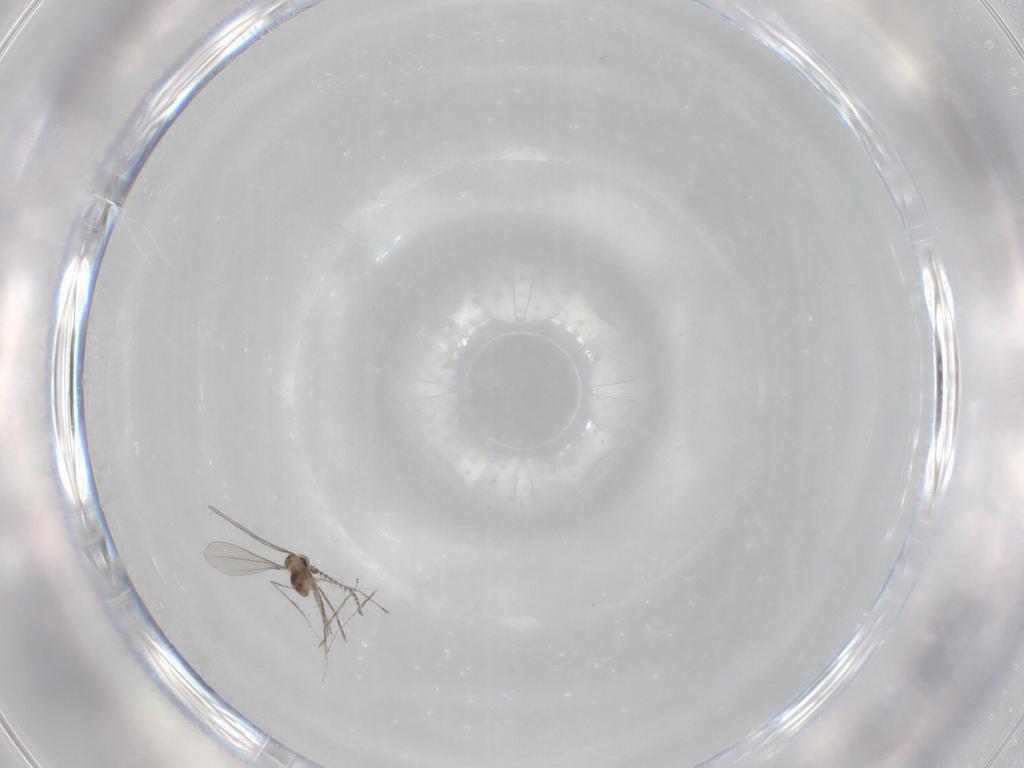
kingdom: Animalia
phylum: Arthropoda
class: Insecta
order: Diptera
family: Cecidomyiidae
